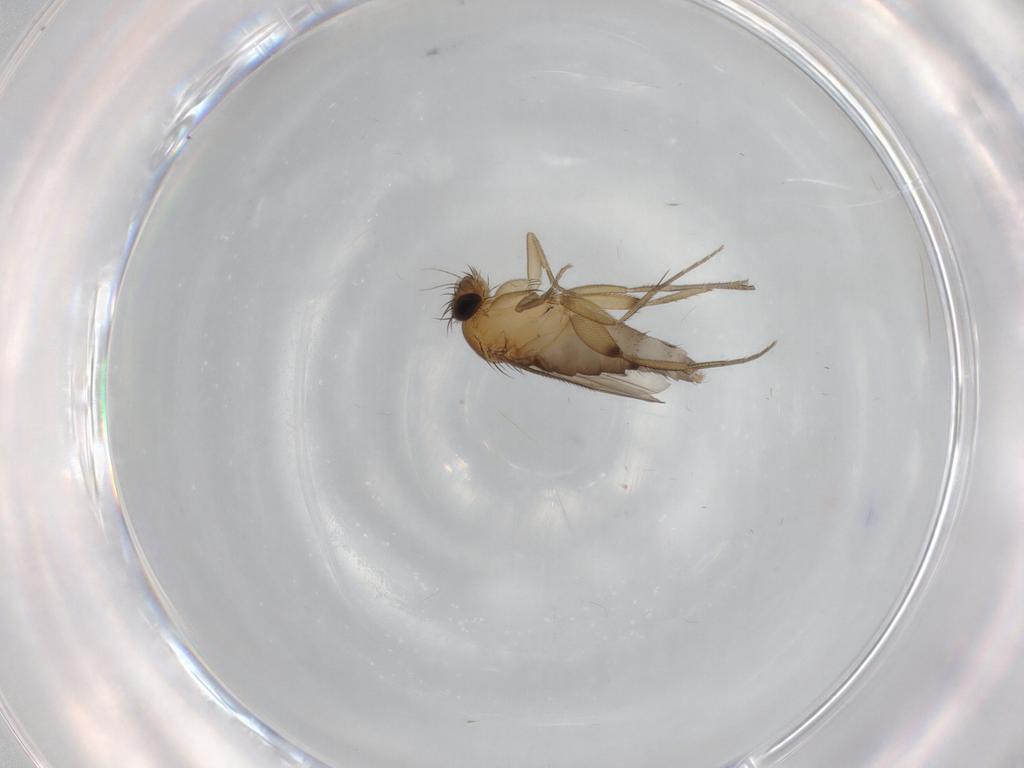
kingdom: Animalia
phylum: Arthropoda
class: Insecta
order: Diptera
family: Phoridae
